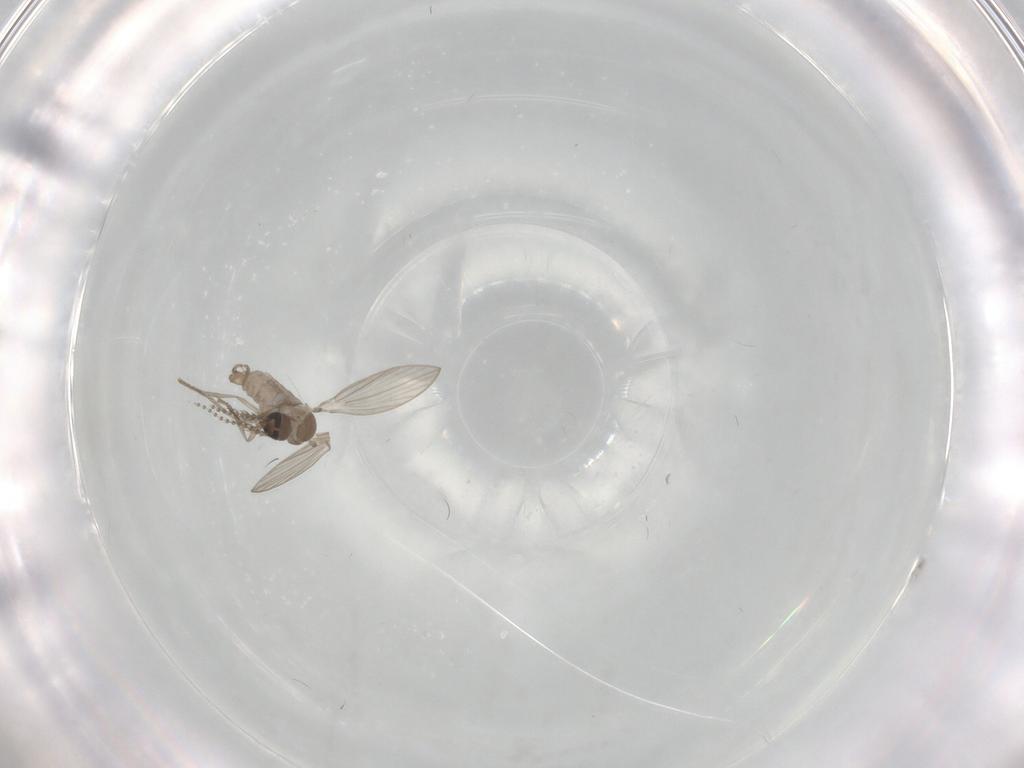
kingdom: Animalia
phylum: Arthropoda
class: Insecta
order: Diptera
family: Psychodidae
